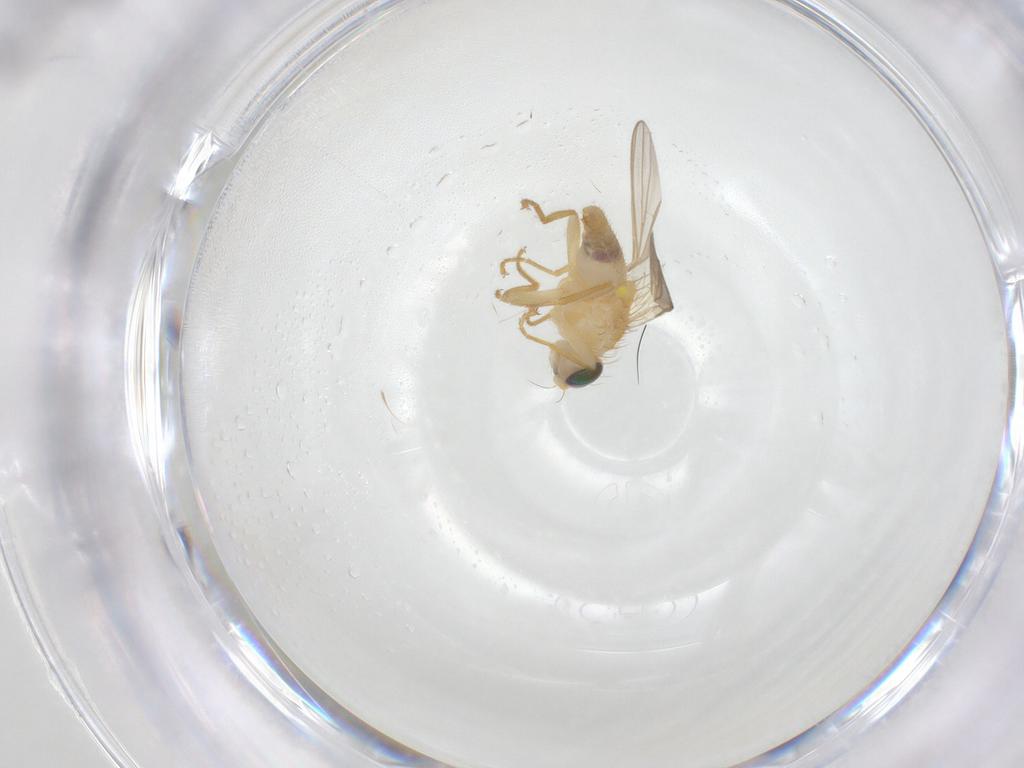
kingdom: Animalia
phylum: Arthropoda
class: Insecta
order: Diptera
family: Chyromyidae
